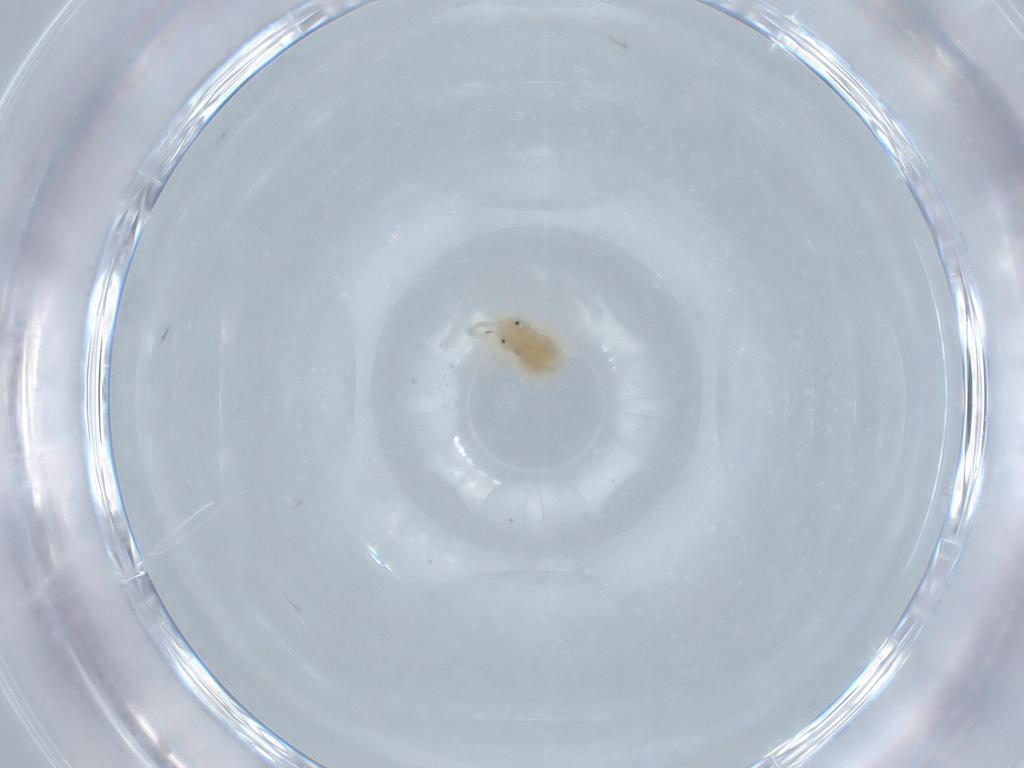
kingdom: Animalia
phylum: Arthropoda
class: Arachnida
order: Trombidiformes
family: Anystidae
